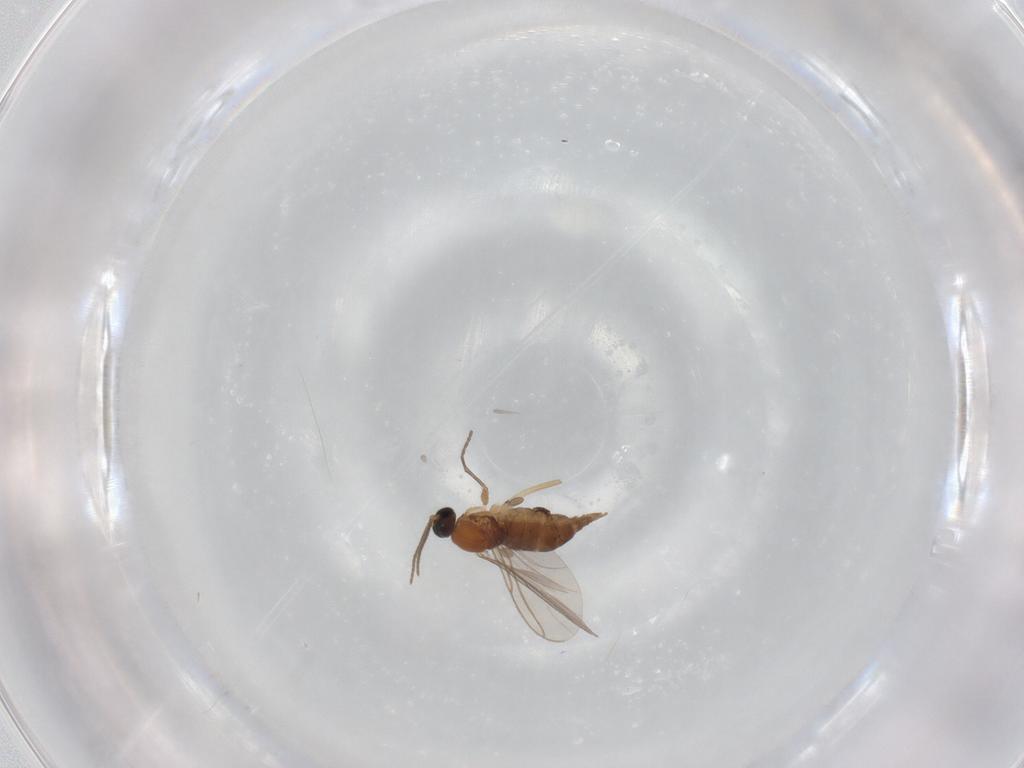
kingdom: Animalia
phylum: Arthropoda
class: Insecta
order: Diptera
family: Sciaridae
